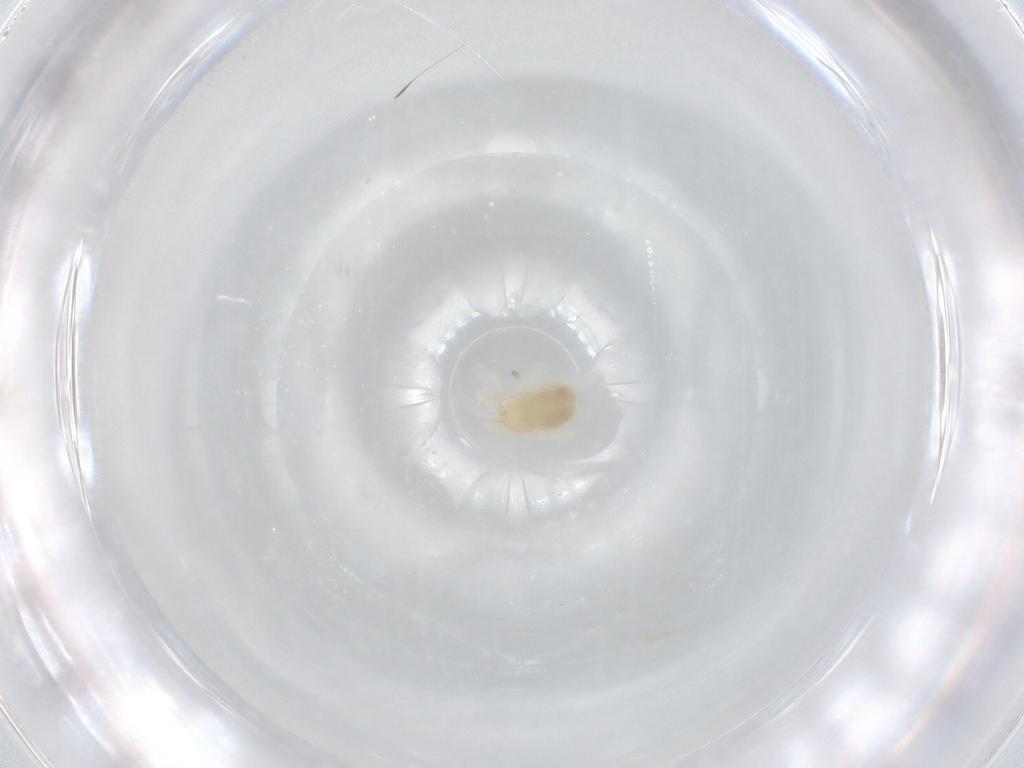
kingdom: Animalia
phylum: Arthropoda
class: Arachnida
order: Trombidiformes
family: Anystidae
